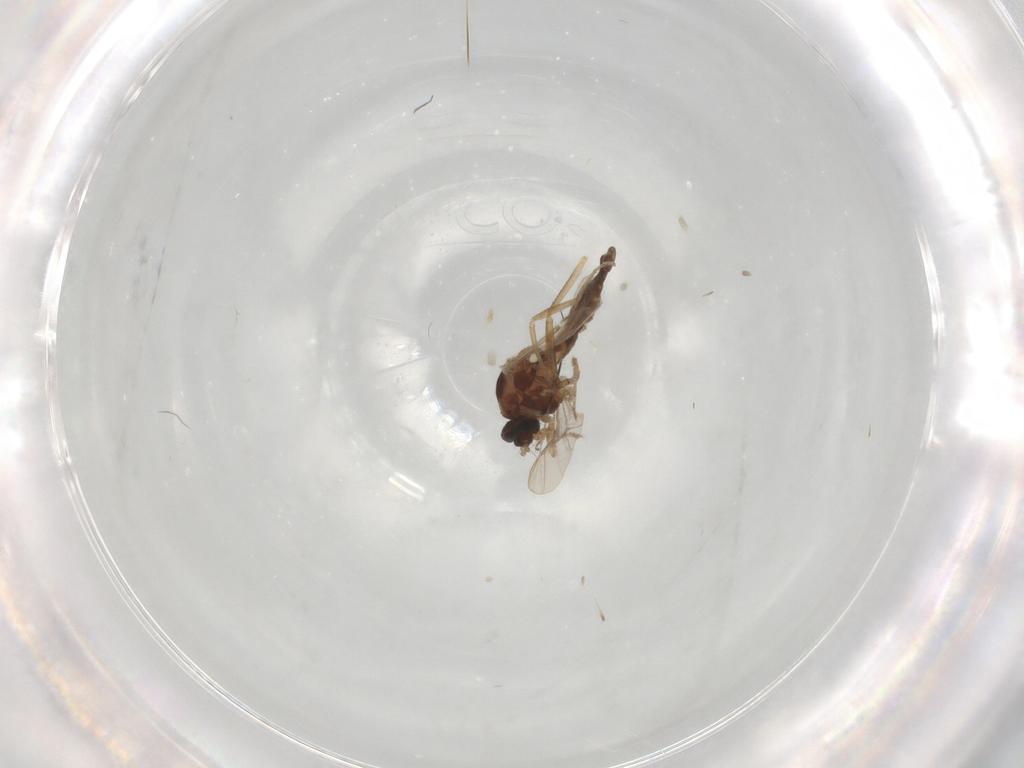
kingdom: Animalia
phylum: Arthropoda
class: Insecta
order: Diptera
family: Ceratopogonidae
